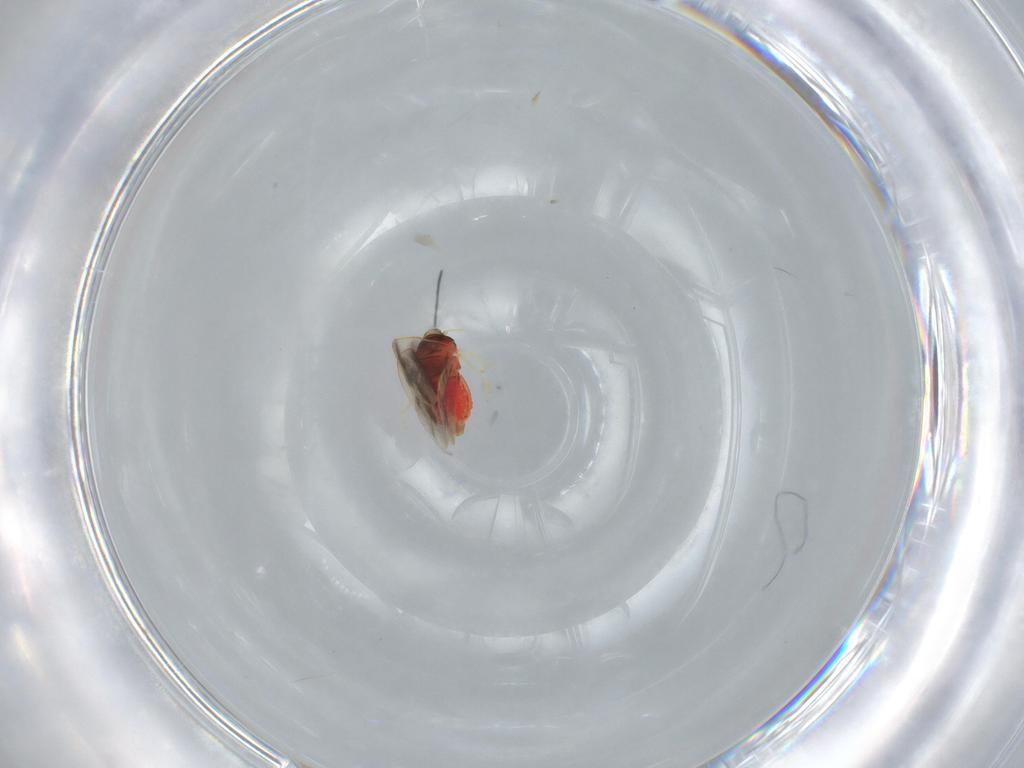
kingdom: Animalia
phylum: Arthropoda
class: Insecta
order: Hemiptera
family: Aleyrodidae
